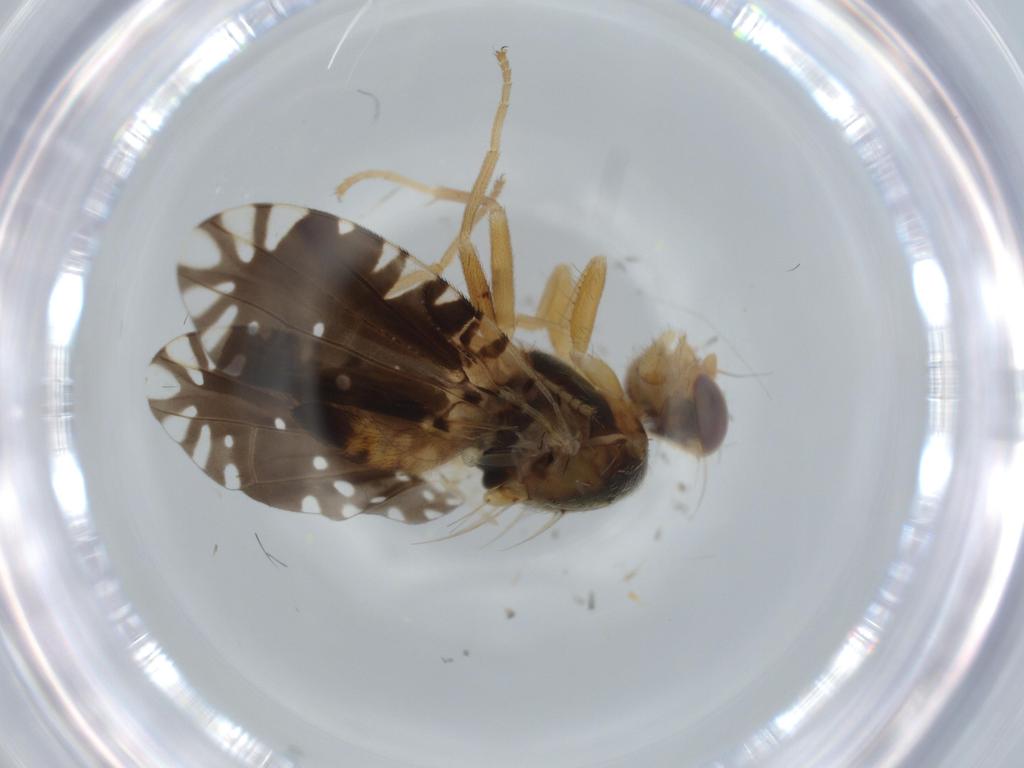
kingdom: Animalia
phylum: Arthropoda
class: Insecta
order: Diptera
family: Tephritidae
